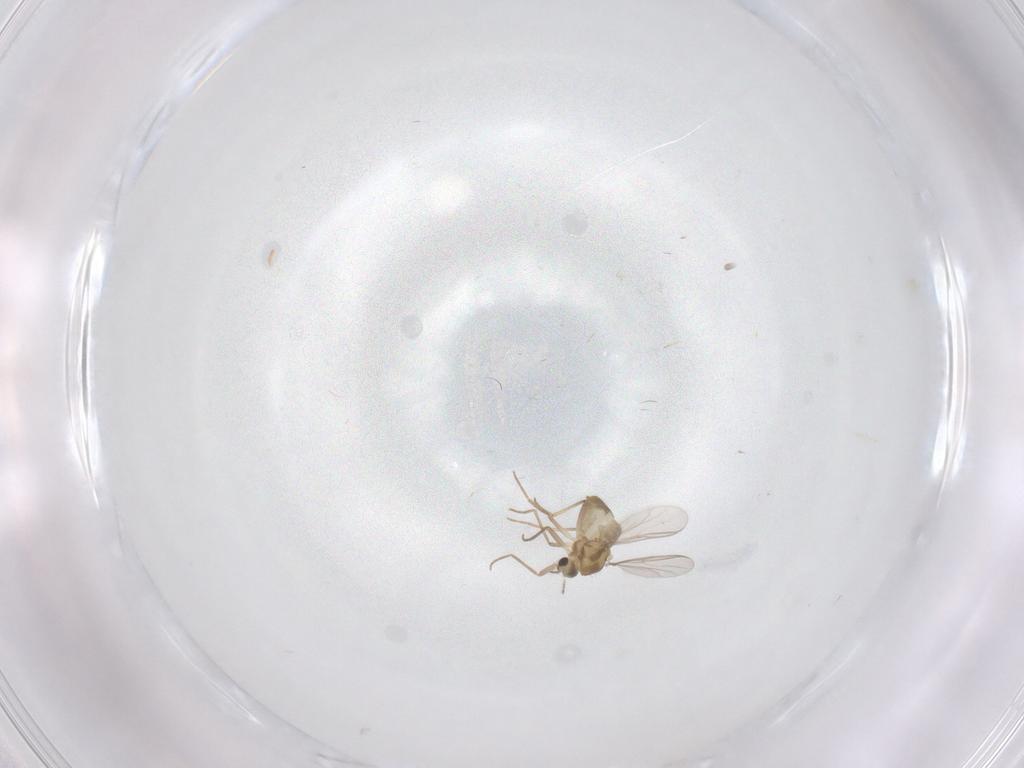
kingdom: Animalia
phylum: Arthropoda
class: Insecta
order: Diptera
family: Chironomidae
